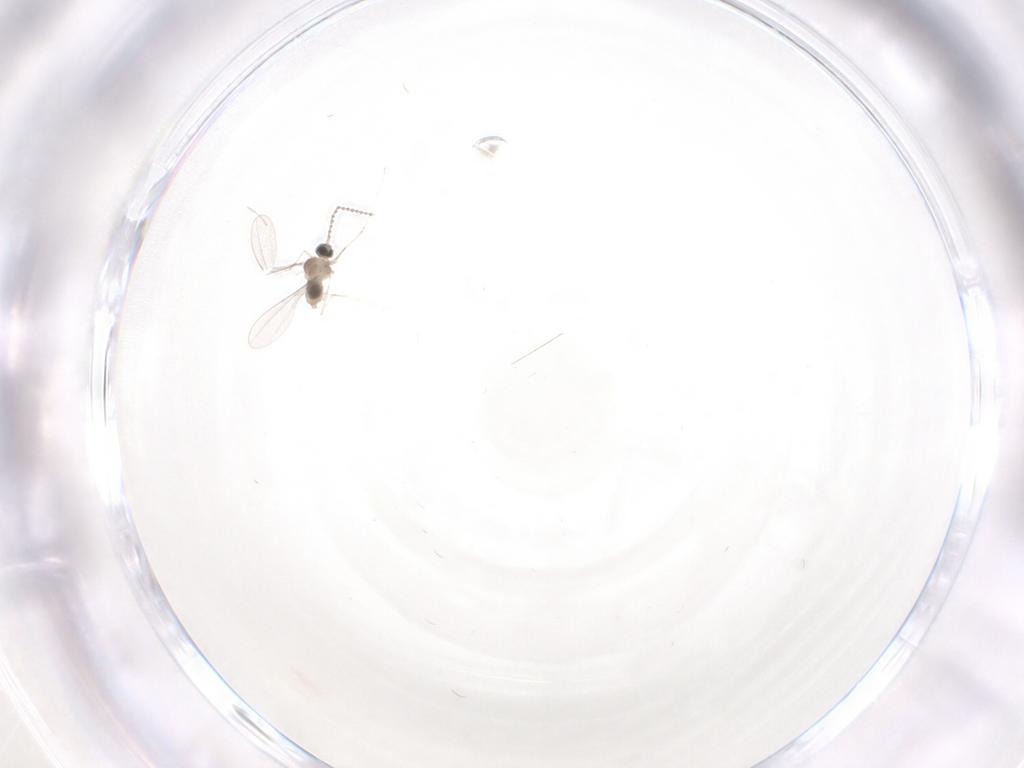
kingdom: Animalia
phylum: Arthropoda
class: Insecta
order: Diptera
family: Cecidomyiidae
